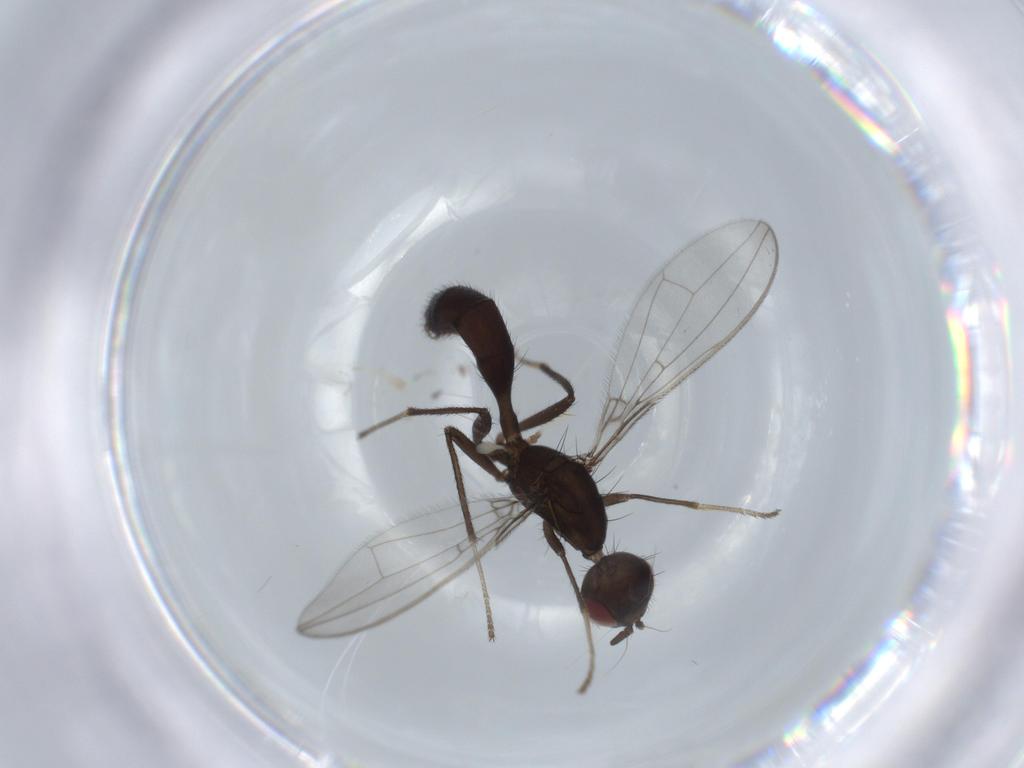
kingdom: Animalia
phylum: Arthropoda
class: Insecta
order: Diptera
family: Richardiidae
